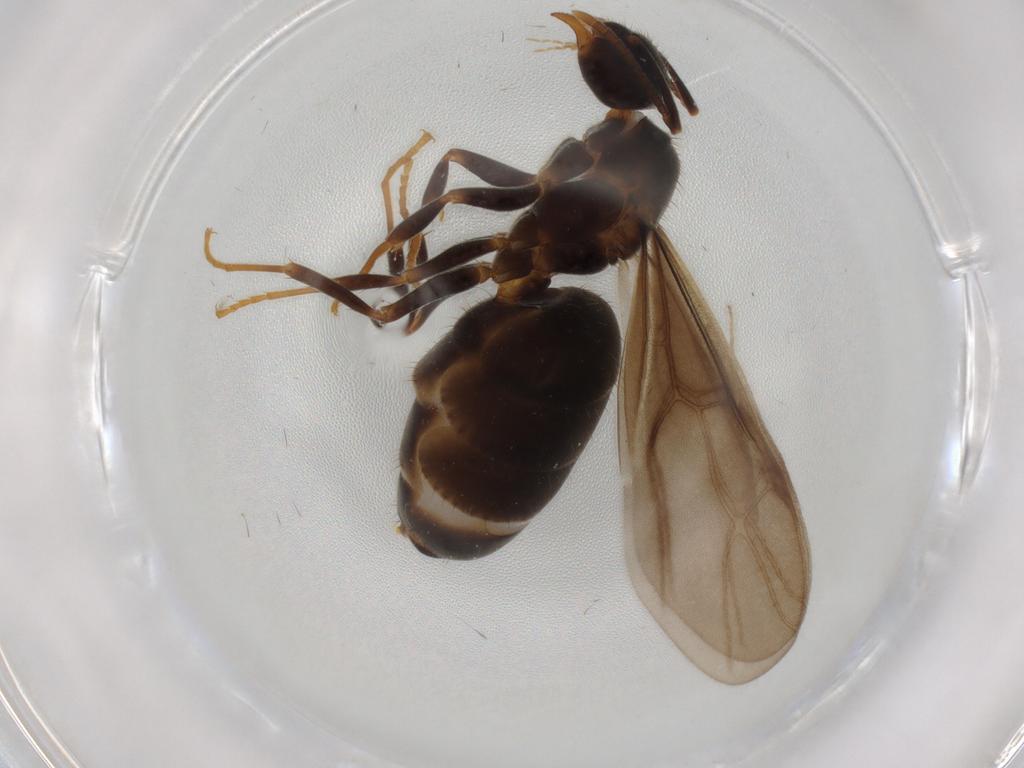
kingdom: Animalia
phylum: Arthropoda
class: Insecta
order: Hymenoptera
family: Formicidae
